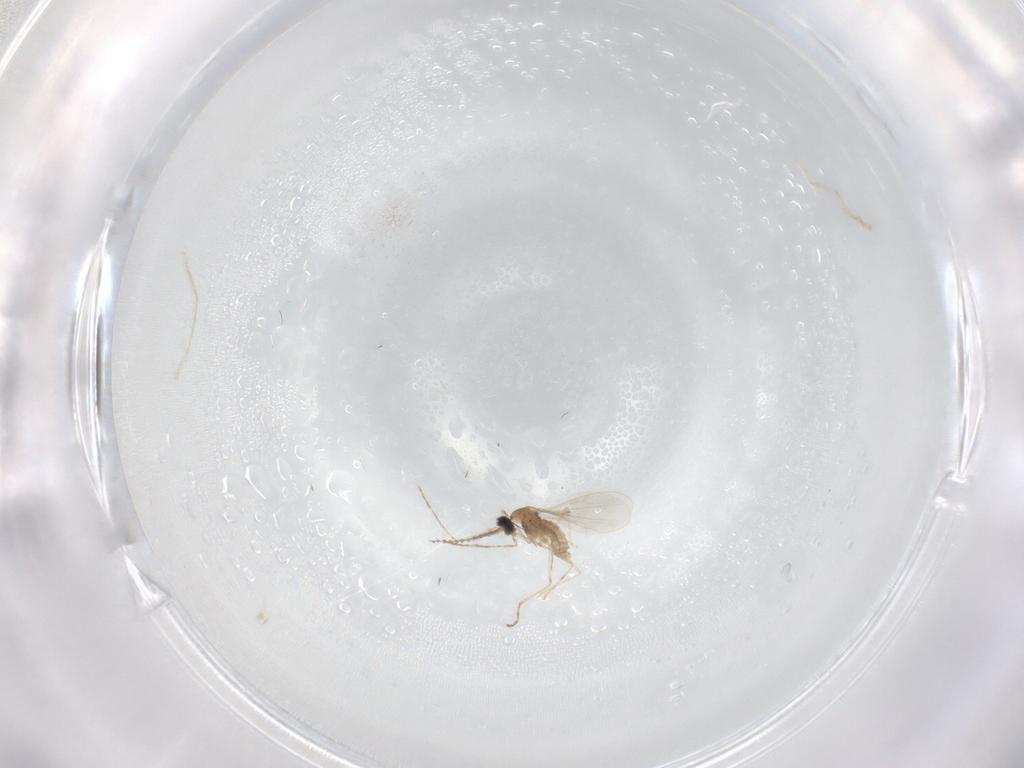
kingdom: Animalia
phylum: Arthropoda
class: Insecta
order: Diptera
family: Cecidomyiidae
